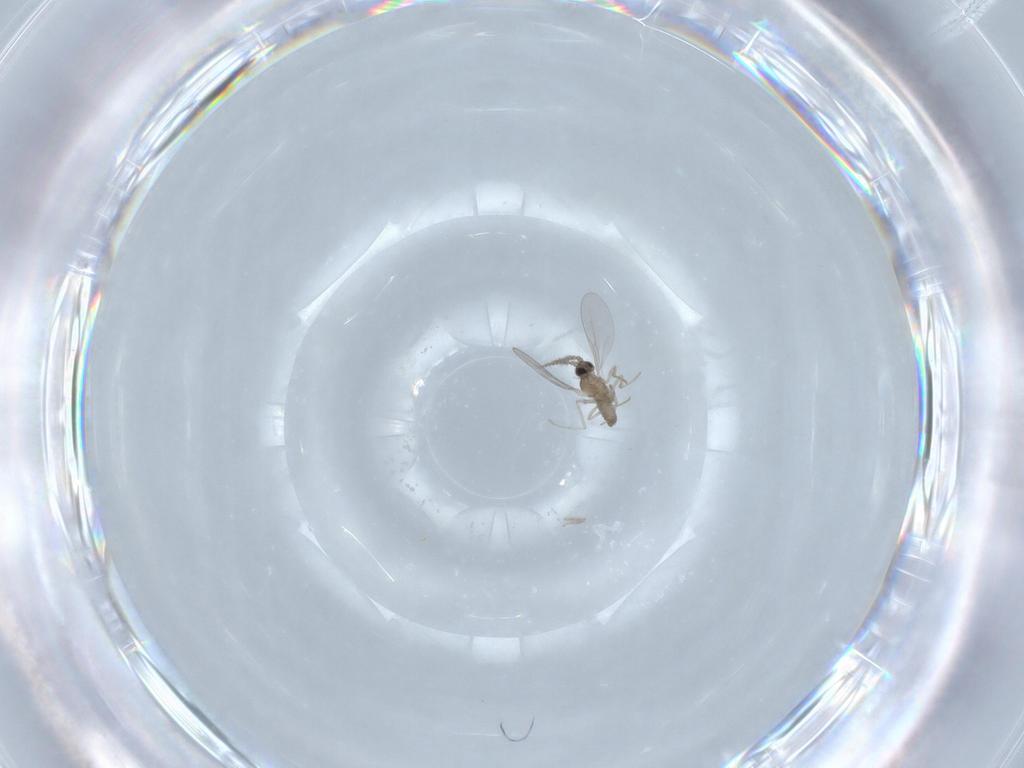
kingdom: Animalia
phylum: Arthropoda
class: Insecta
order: Diptera
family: Cecidomyiidae
